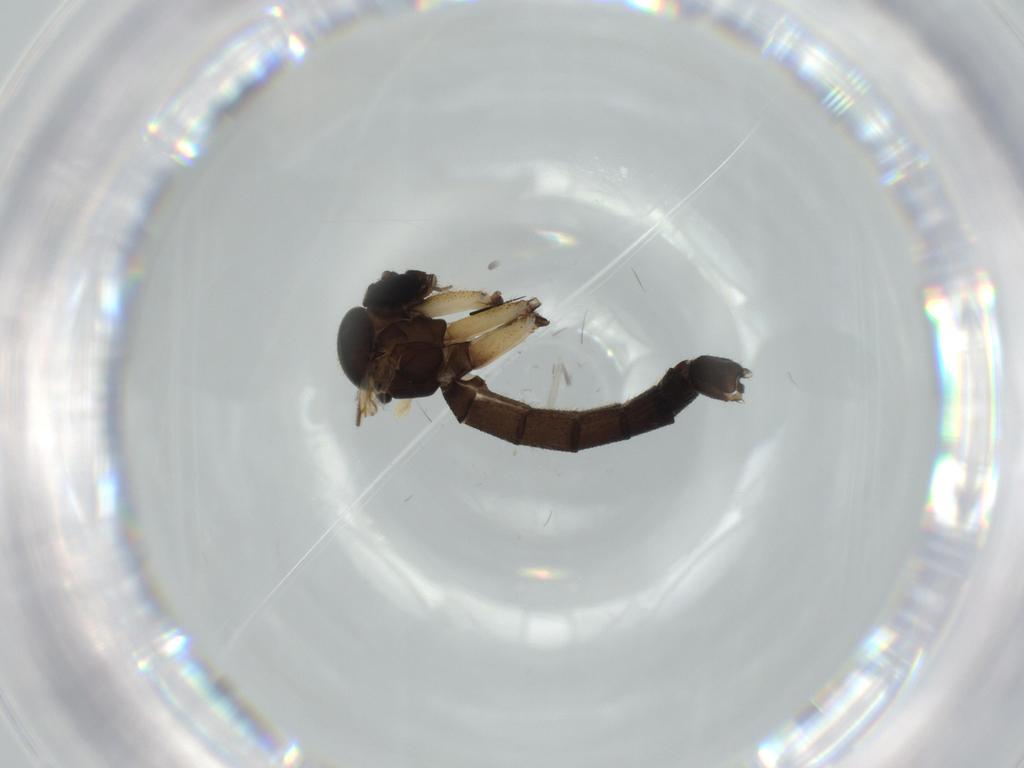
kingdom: Animalia
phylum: Arthropoda
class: Insecta
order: Diptera
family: Sciaridae
